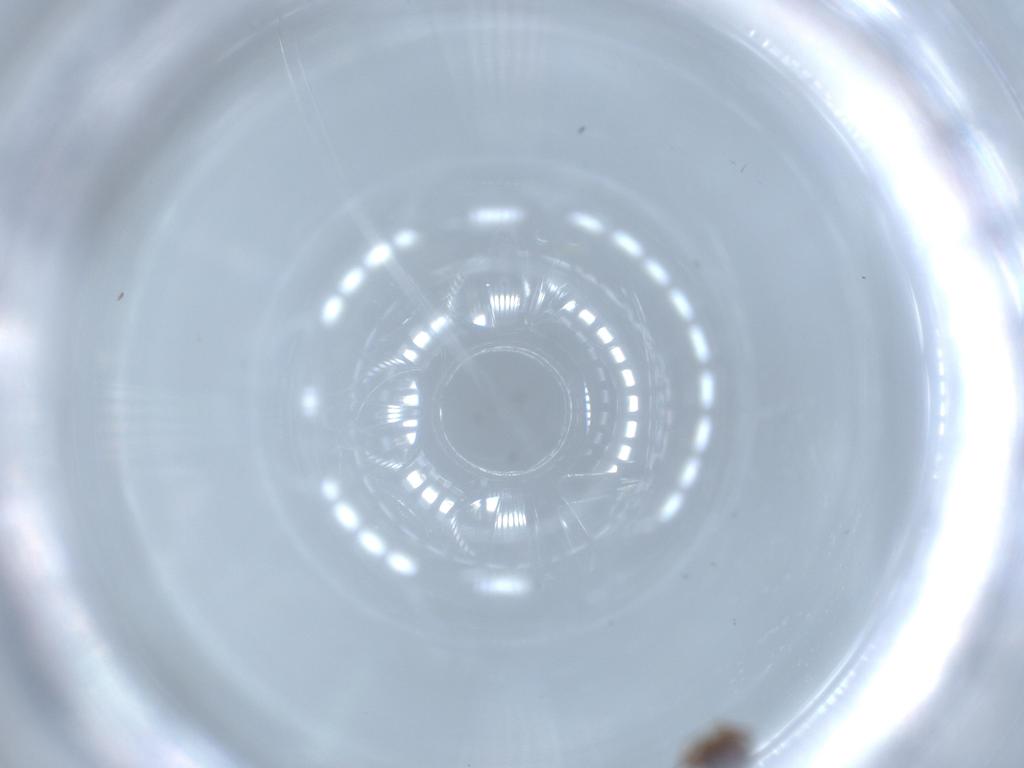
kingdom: Animalia
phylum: Arthropoda
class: Insecta
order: Coleoptera
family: Staphylinidae
